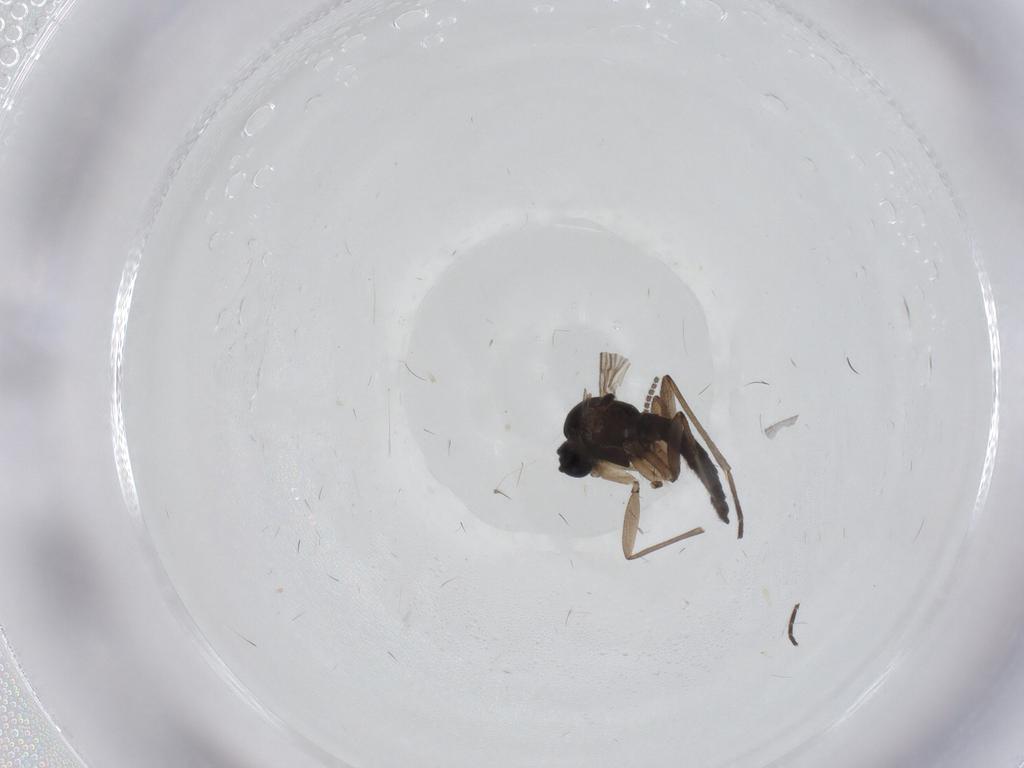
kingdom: Animalia
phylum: Arthropoda
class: Insecta
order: Diptera
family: Sciaridae
